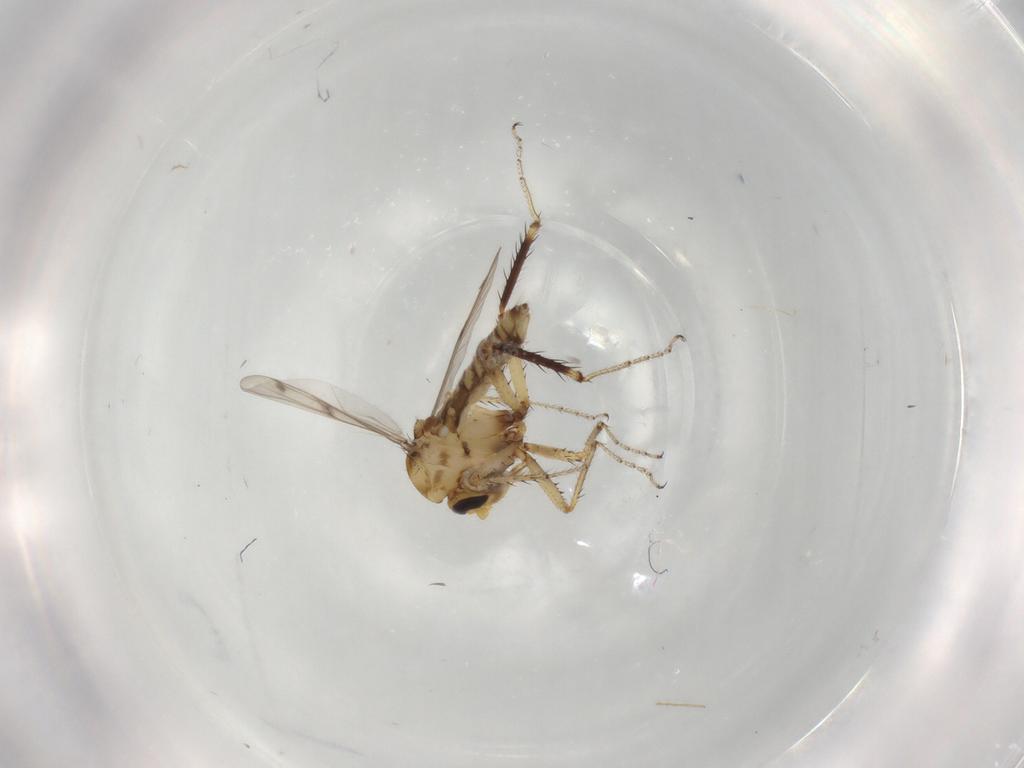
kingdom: Animalia
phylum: Arthropoda
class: Insecta
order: Diptera
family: Ceratopogonidae
